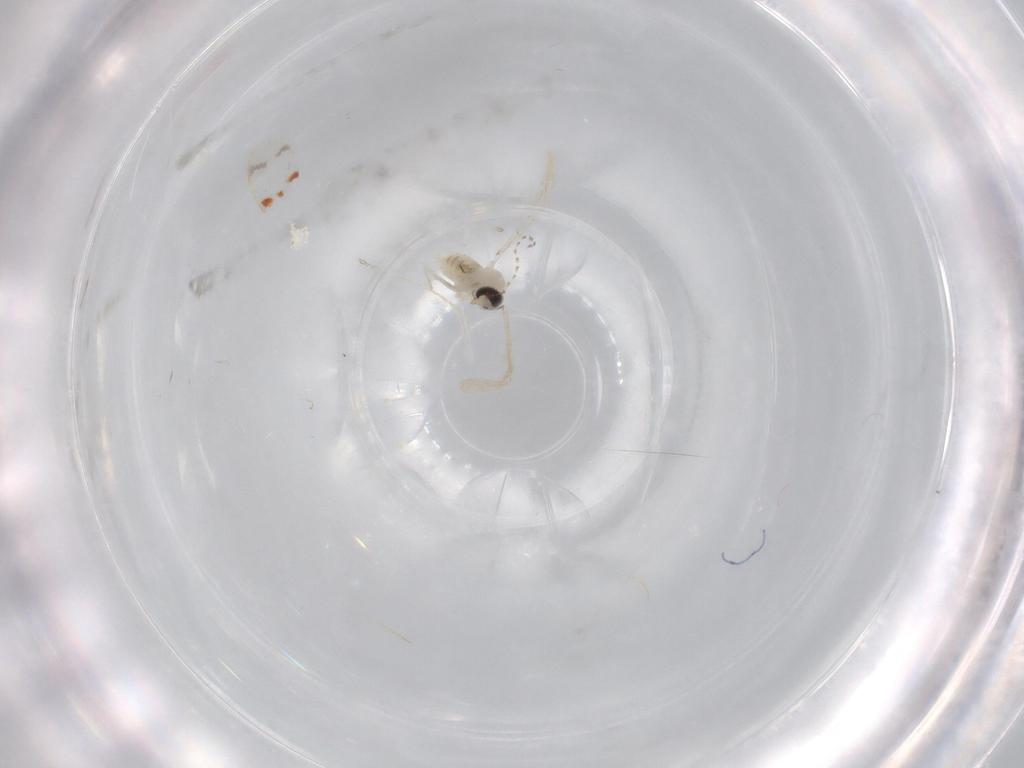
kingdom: Animalia
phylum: Arthropoda
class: Insecta
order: Diptera
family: Cecidomyiidae
